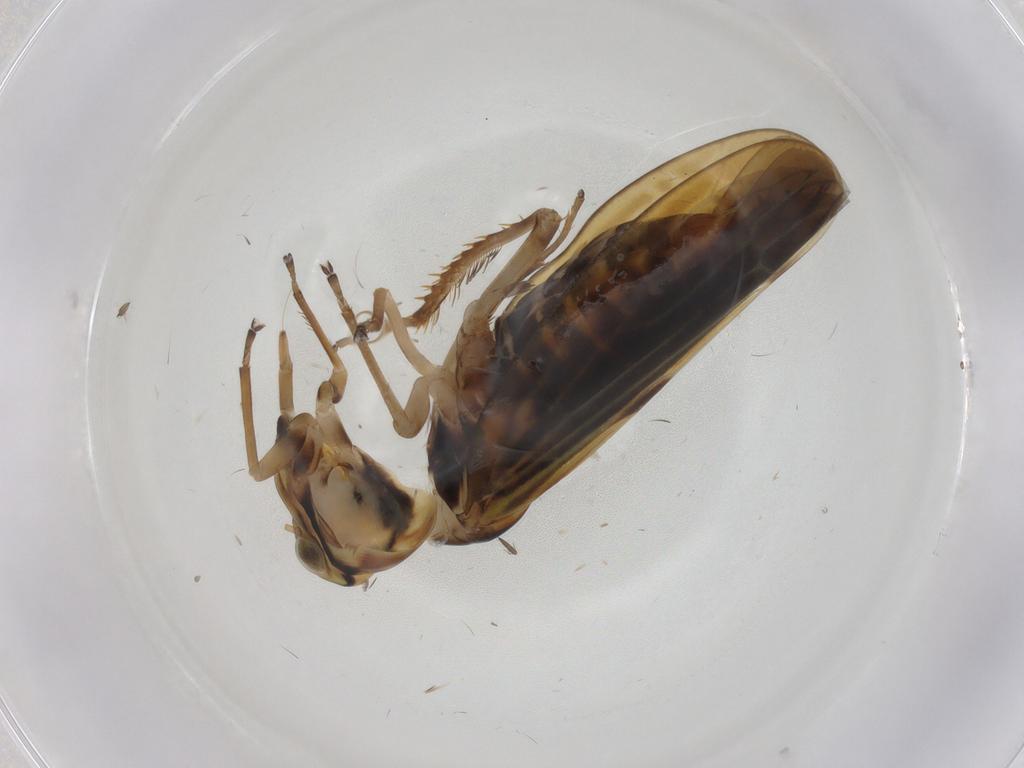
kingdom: Animalia
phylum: Arthropoda
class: Insecta
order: Hemiptera
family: Cicadellidae
